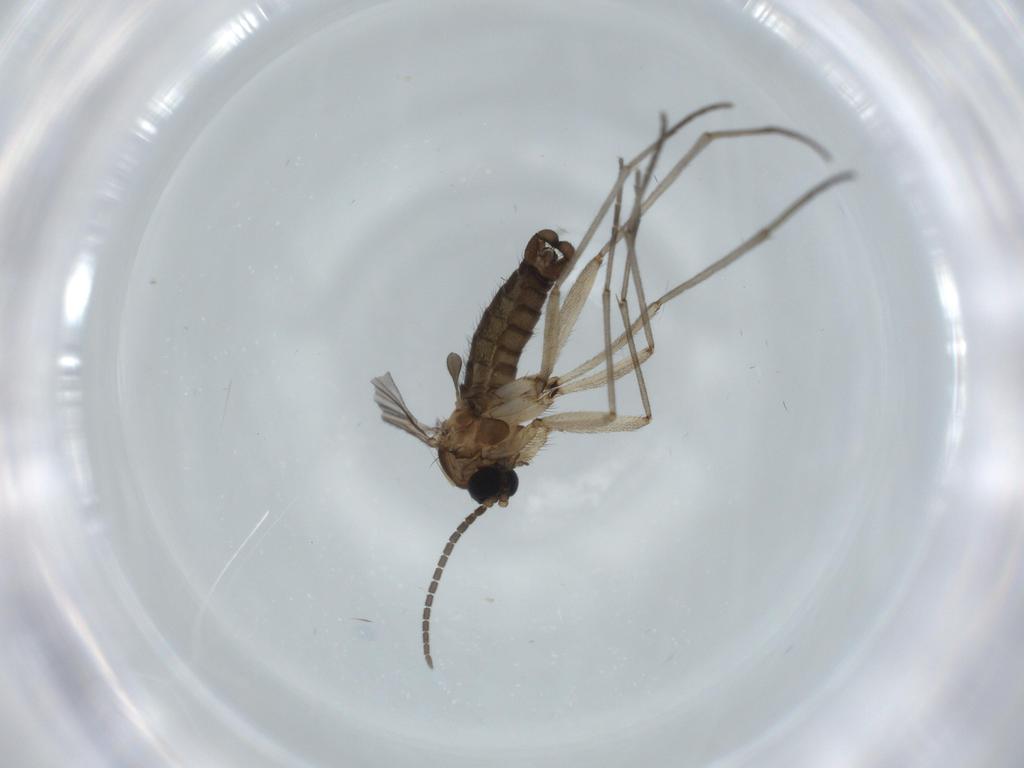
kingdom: Animalia
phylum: Arthropoda
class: Insecta
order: Diptera
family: Sciaridae
